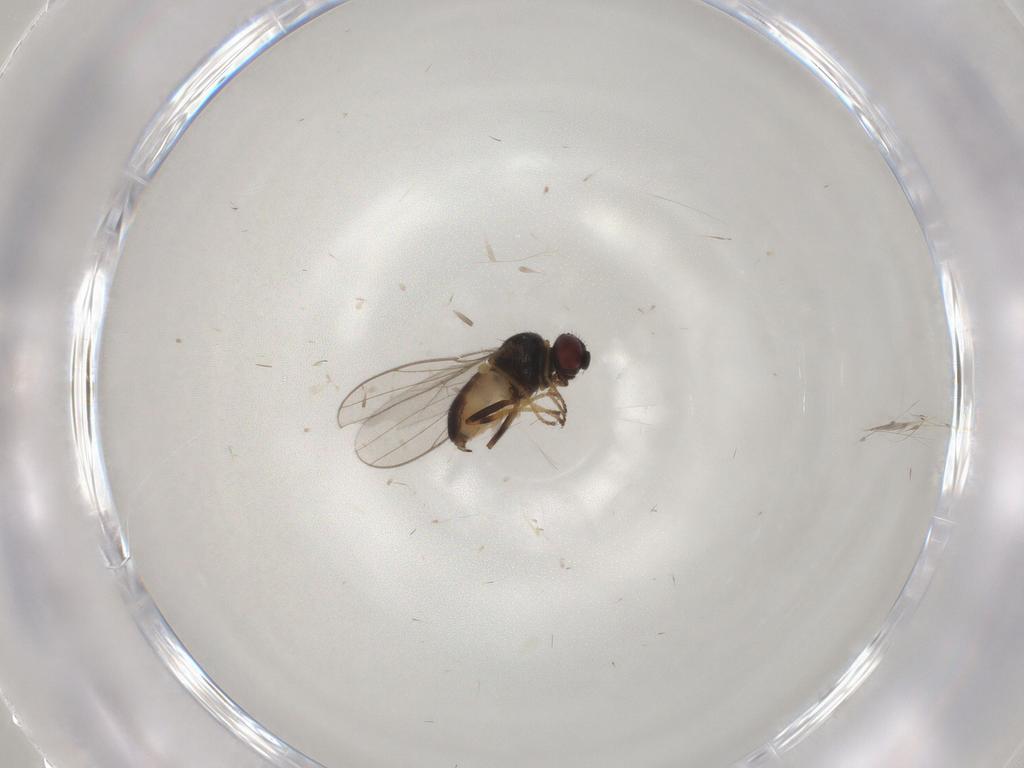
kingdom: Animalia
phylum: Arthropoda
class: Insecta
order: Diptera
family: Chloropidae
